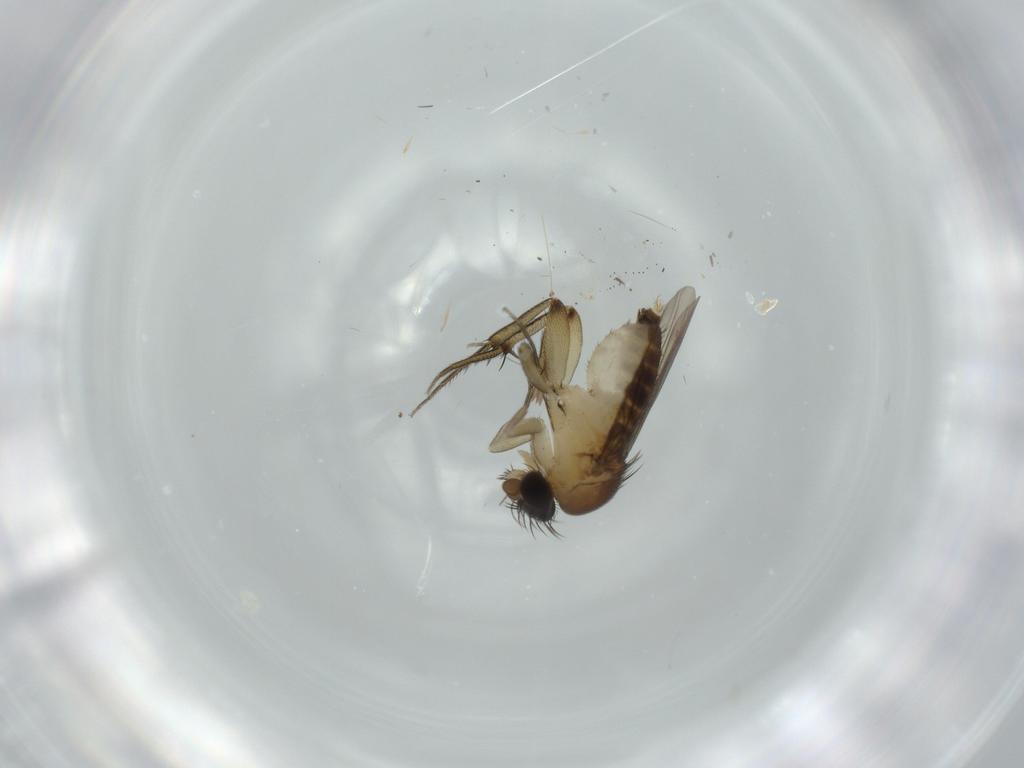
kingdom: Animalia
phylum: Arthropoda
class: Insecta
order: Diptera
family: Phoridae
